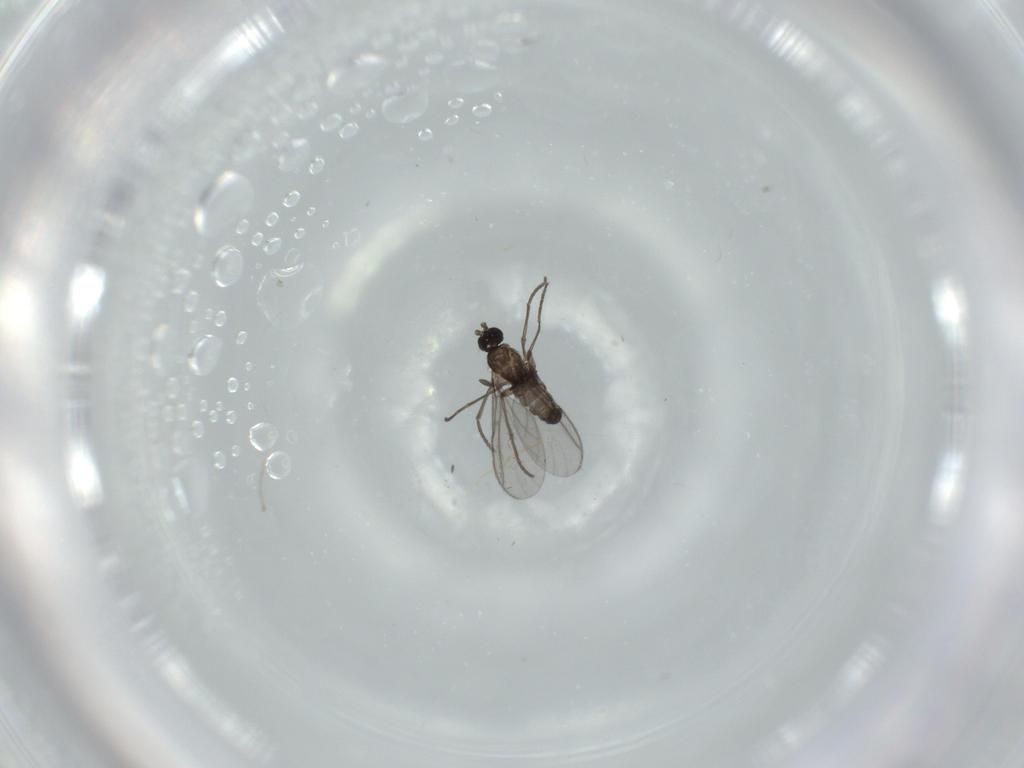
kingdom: Animalia
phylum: Arthropoda
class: Insecta
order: Diptera
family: Cecidomyiidae
